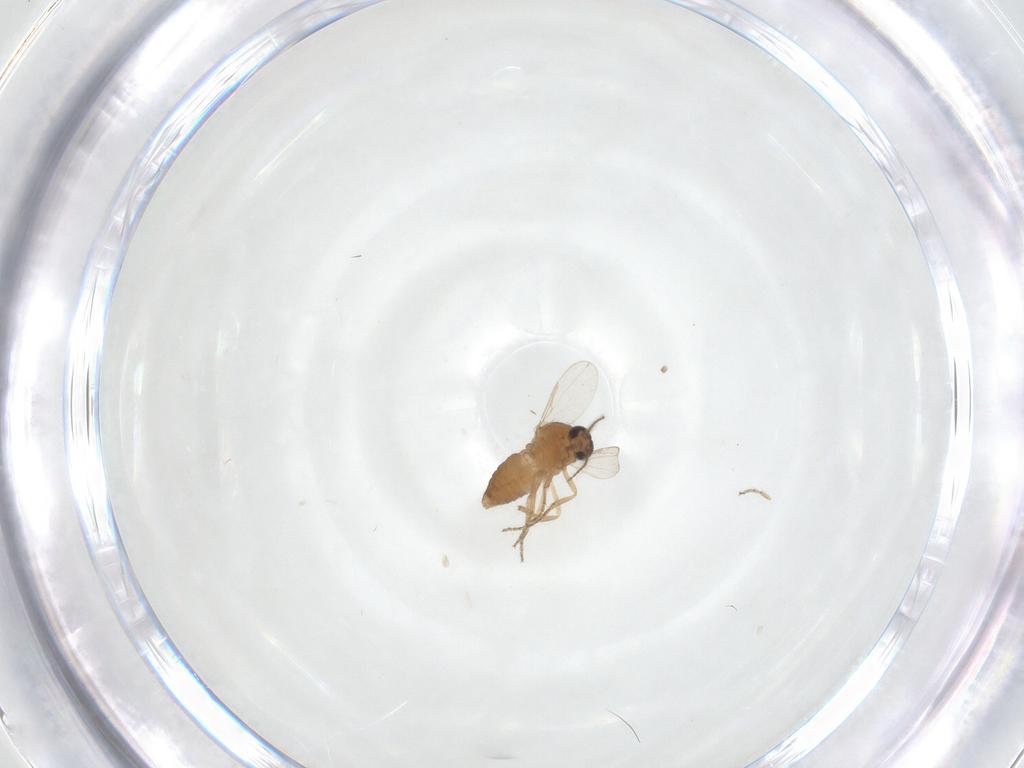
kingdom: Animalia
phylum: Arthropoda
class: Insecta
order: Diptera
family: Ceratopogonidae
